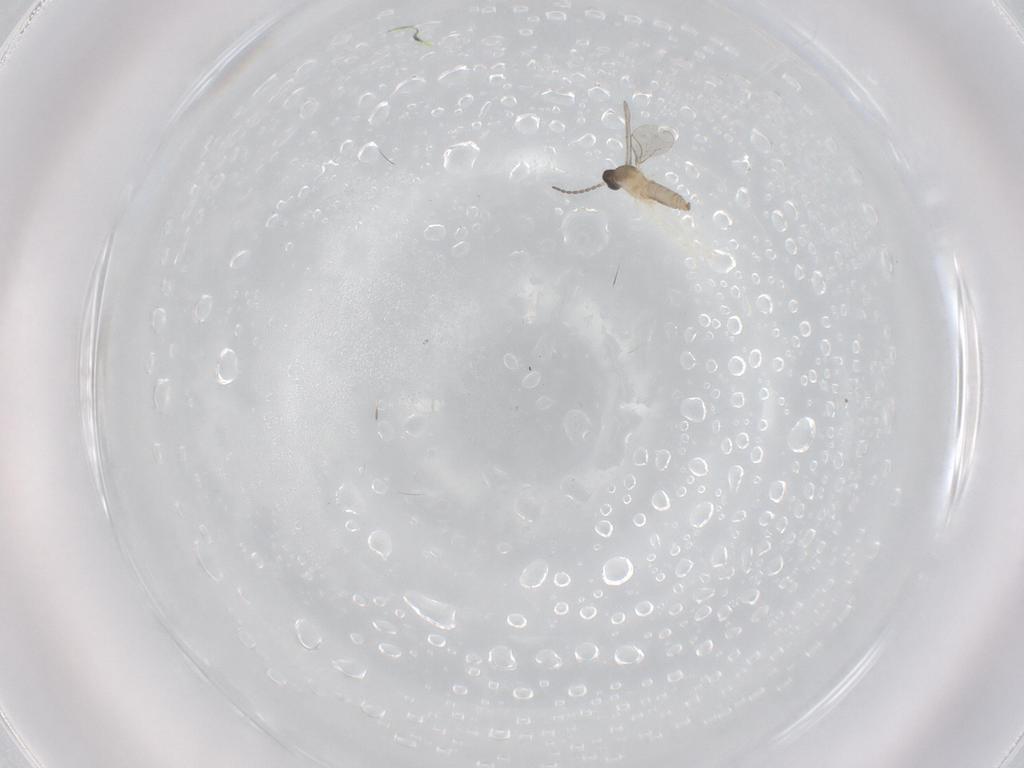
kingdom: Animalia
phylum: Arthropoda
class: Insecta
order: Diptera
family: Cecidomyiidae
